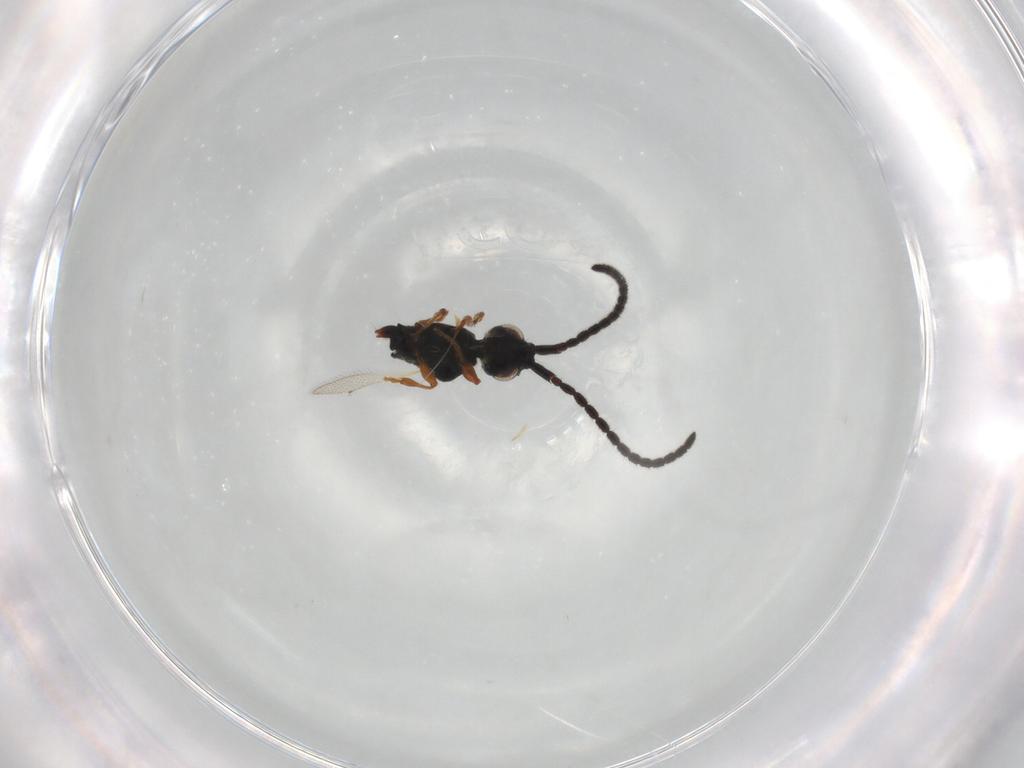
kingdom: Animalia
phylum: Arthropoda
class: Insecta
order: Hymenoptera
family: Diapriidae
